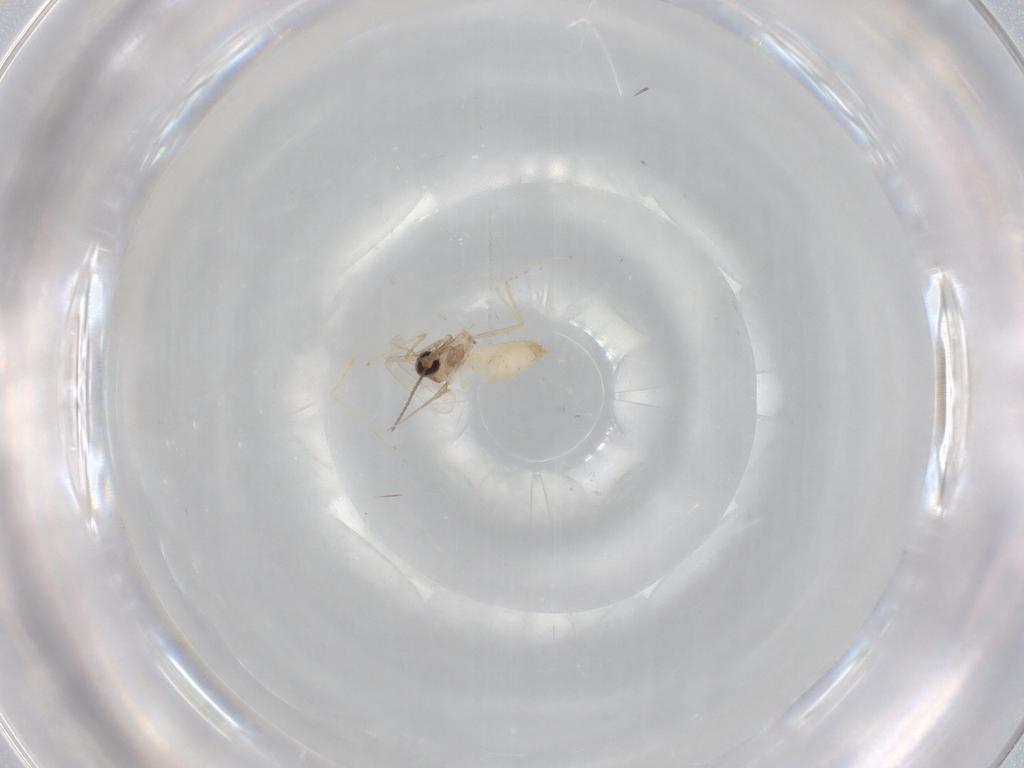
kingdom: Animalia
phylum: Arthropoda
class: Insecta
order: Diptera
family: Cecidomyiidae
